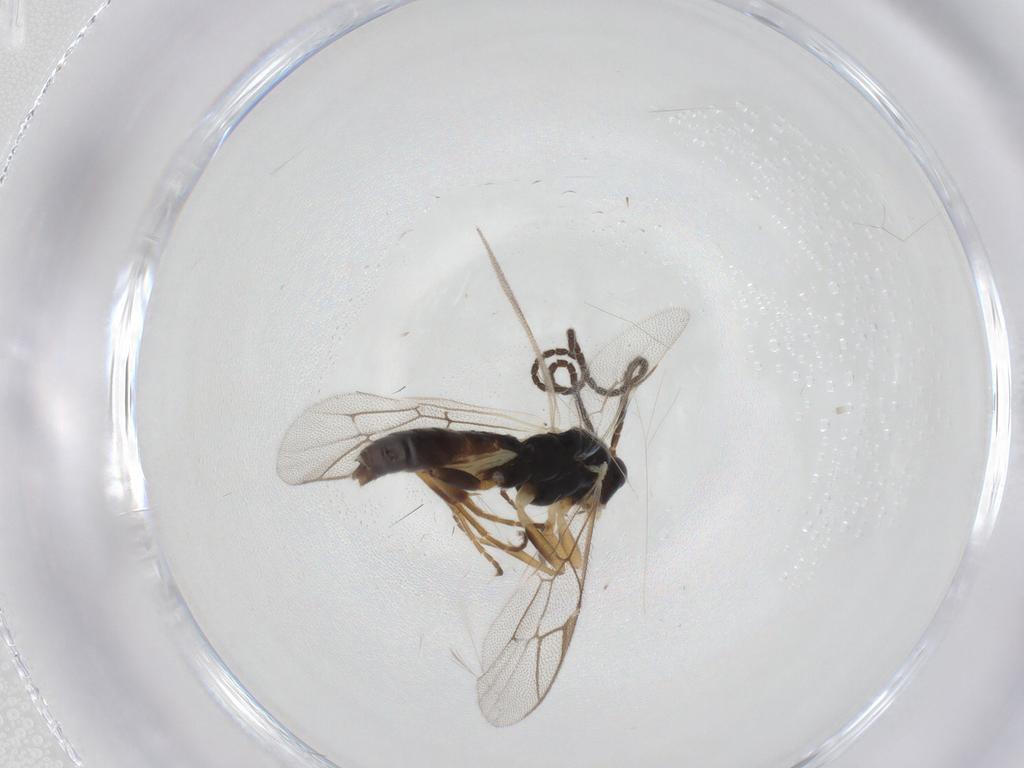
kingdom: Animalia
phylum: Arthropoda
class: Insecta
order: Hymenoptera
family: Ichneumonidae
